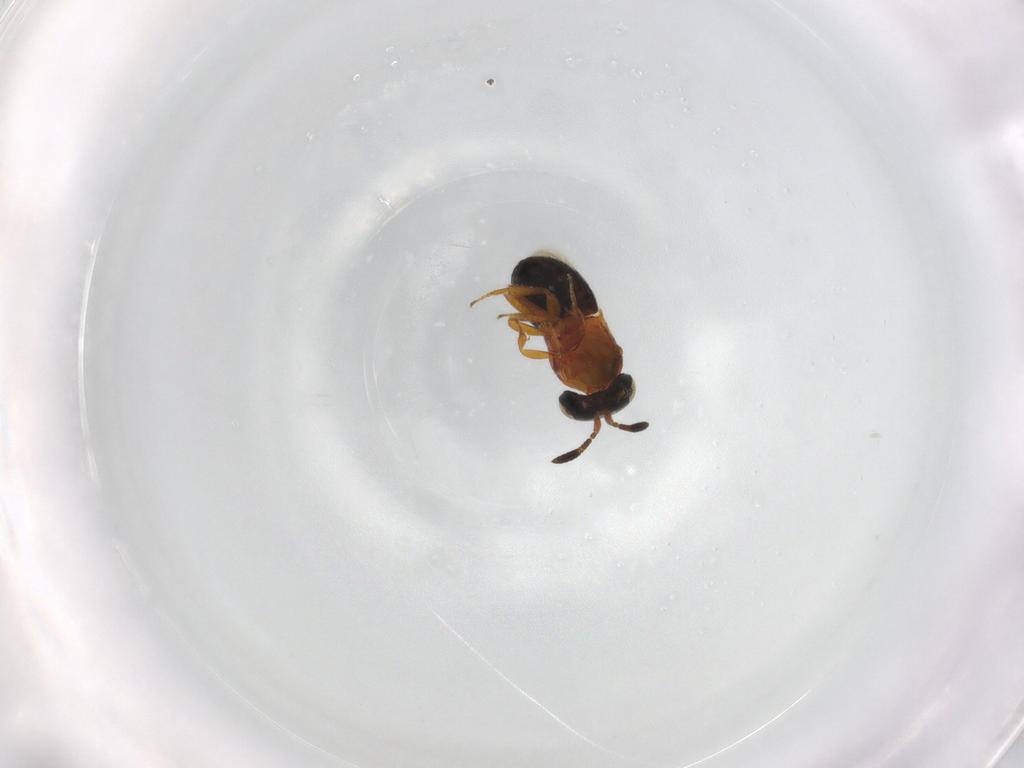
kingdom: Animalia
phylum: Arthropoda
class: Insecta
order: Hymenoptera
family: Scelionidae
